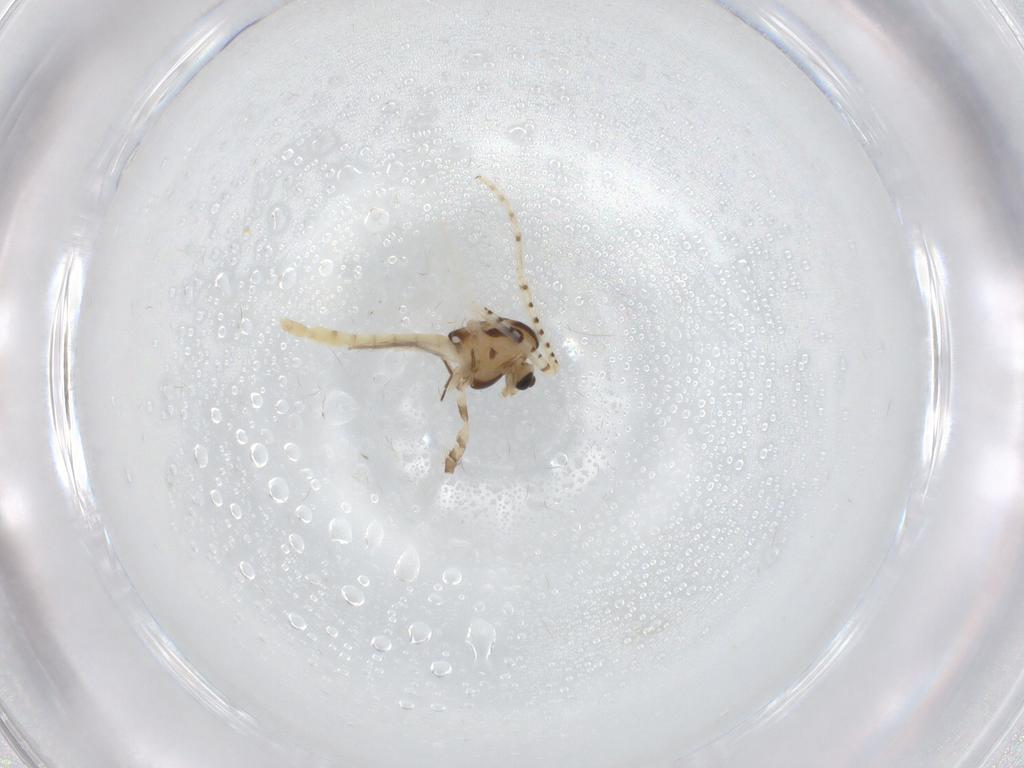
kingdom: Animalia
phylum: Arthropoda
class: Insecta
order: Diptera
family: Chironomidae
